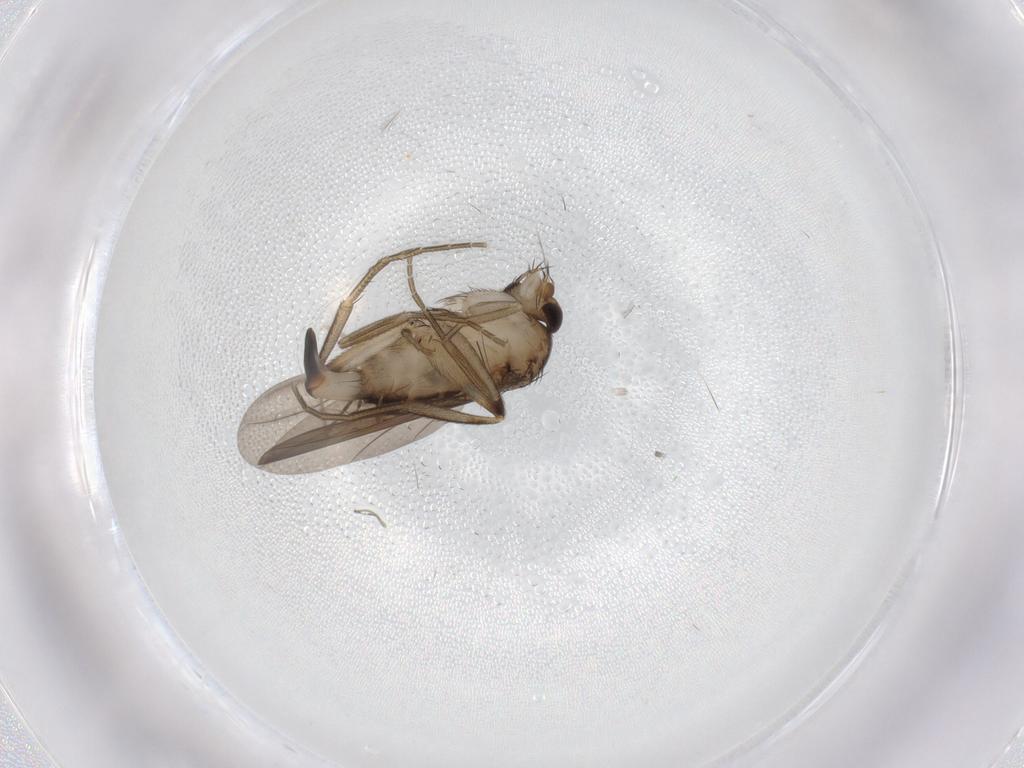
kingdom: Animalia
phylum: Arthropoda
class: Insecta
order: Diptera
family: Phoridae
